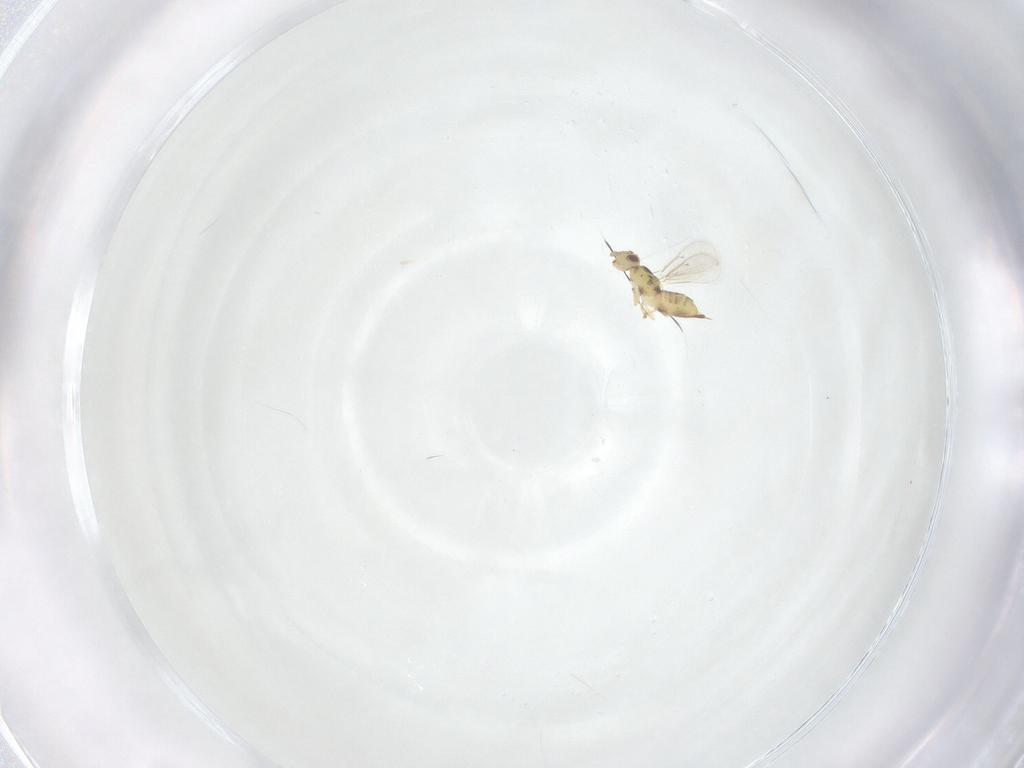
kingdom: Animalia
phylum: Arthropoda
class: Insecta
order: Hymenoptera
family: Eulophidae
